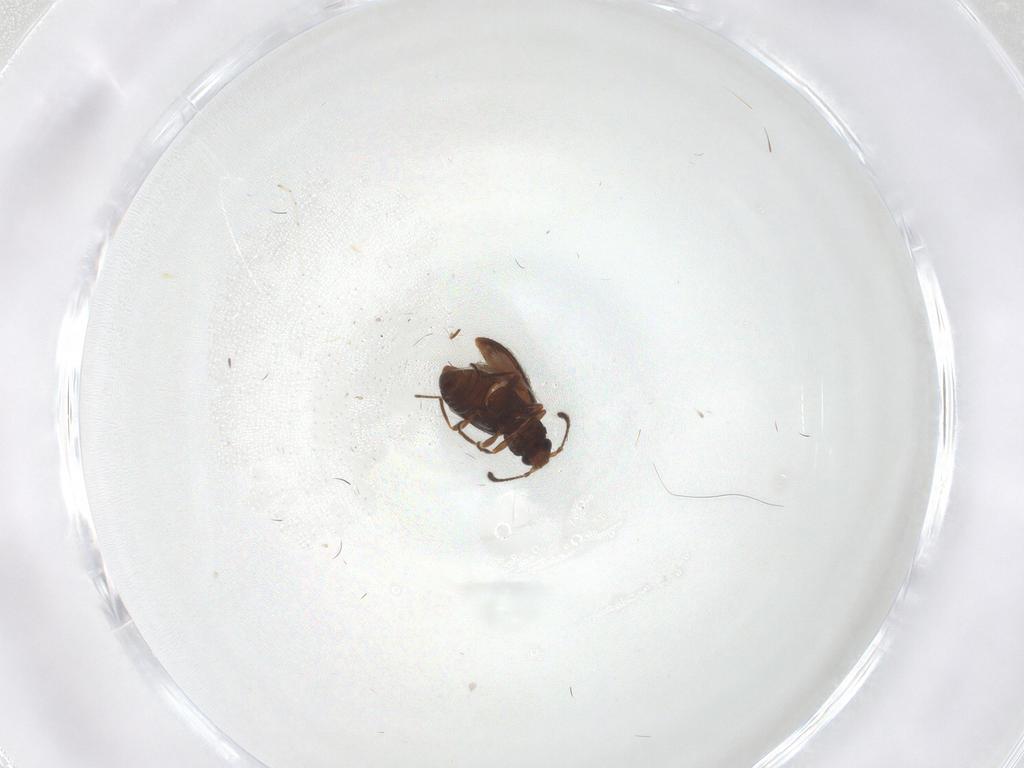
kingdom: Animalia
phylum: Arthropoda
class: Insecta
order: Coleoptera
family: Cryptophagidae
